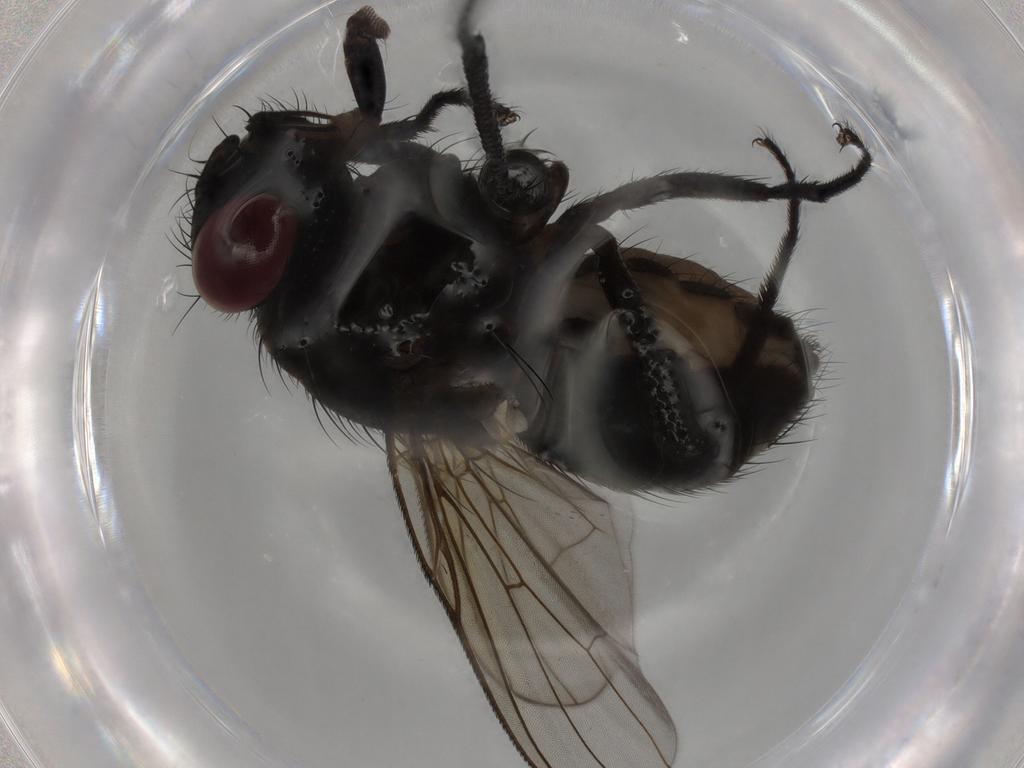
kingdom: Animalia
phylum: Arthropoda
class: Insecta
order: Diptera
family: Muscidae
